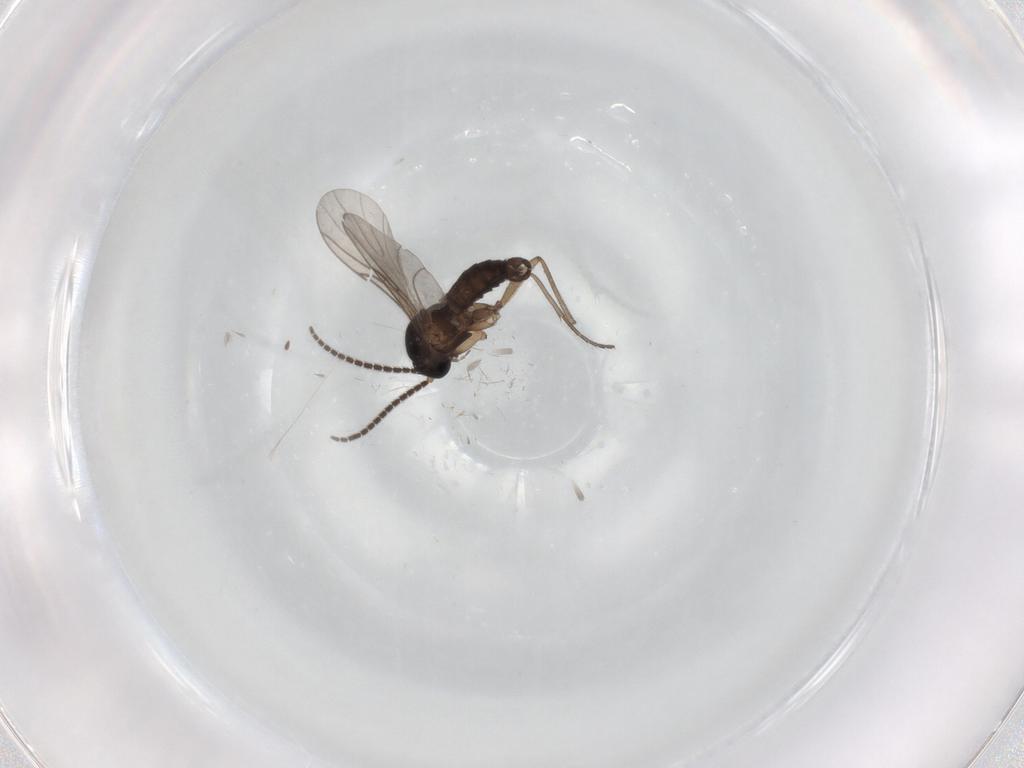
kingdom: Animalia
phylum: Arthropoda
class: Insecta
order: Diptera
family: Sciaridae
